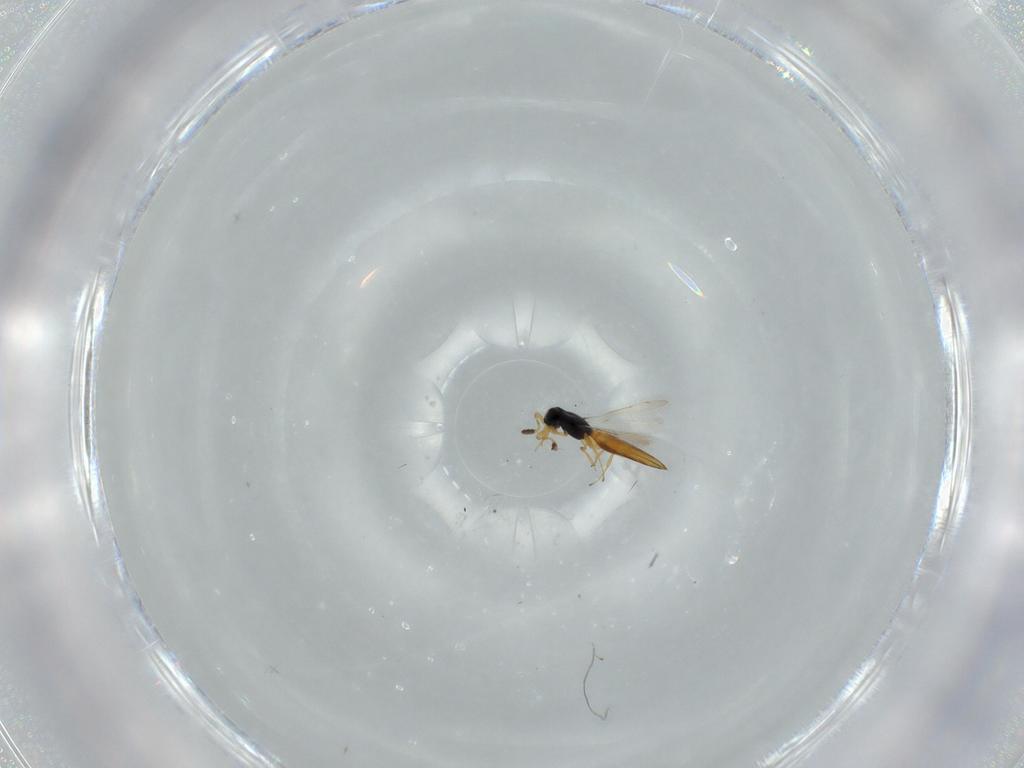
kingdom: Animalia
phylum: Arthropoda
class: Insecta
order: Hymenoptera
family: Scelionidae
